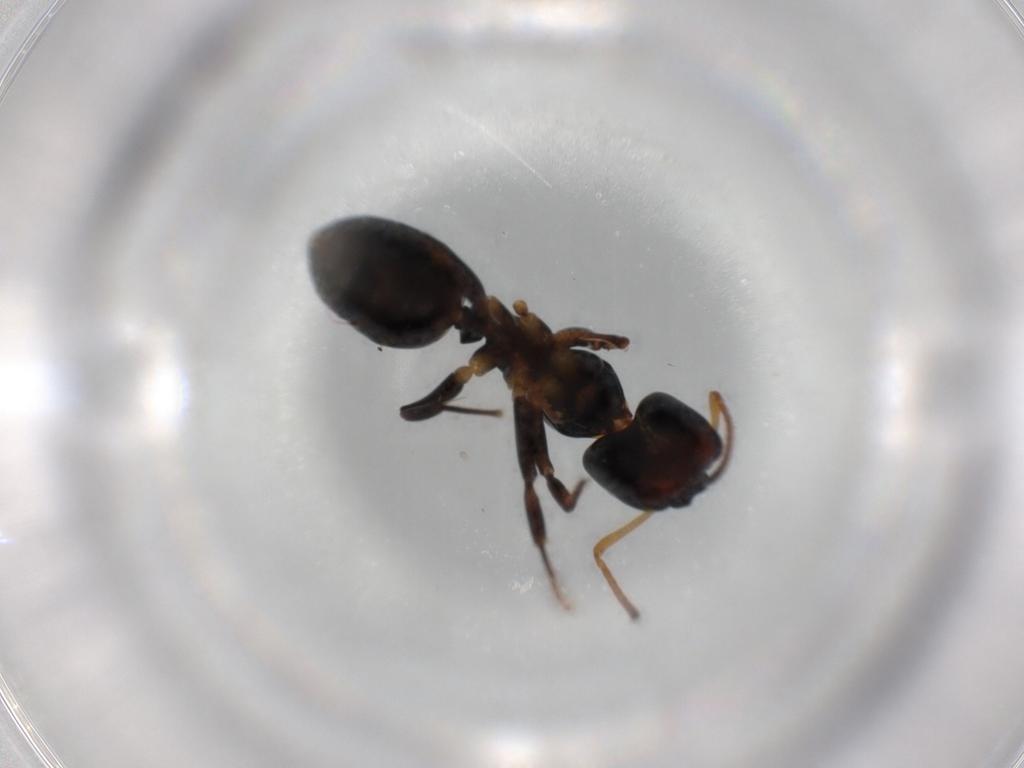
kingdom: Animalia
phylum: Arthropoda
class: Insecta
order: Hymenoptera
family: Formicidae
